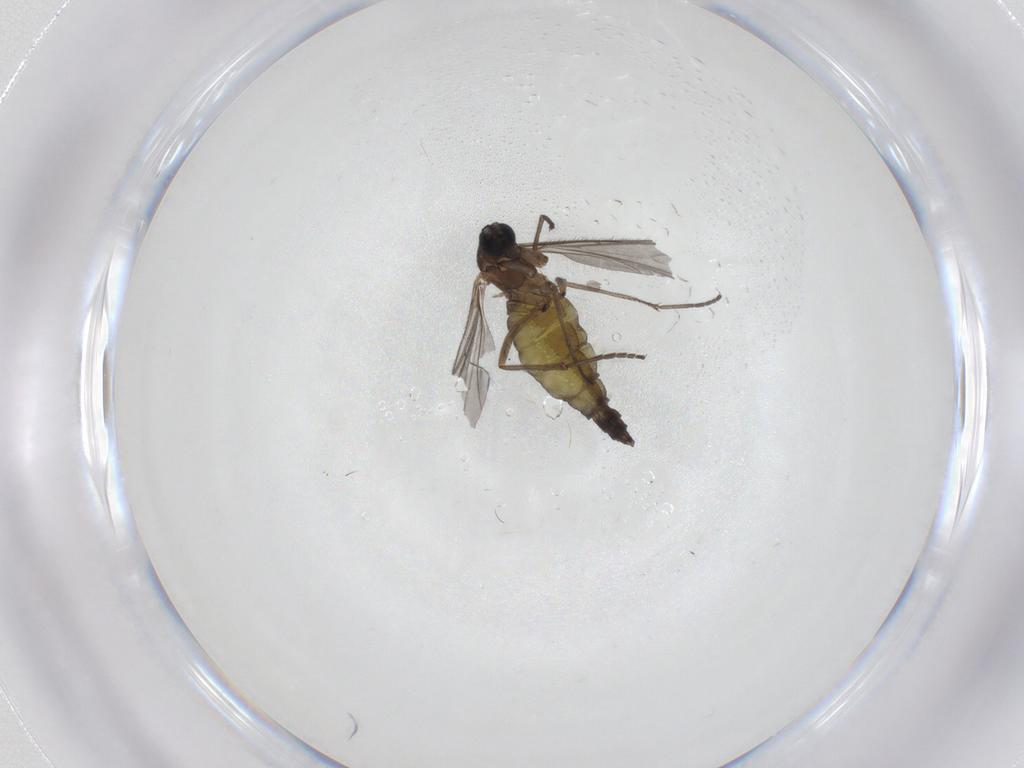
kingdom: Animalia
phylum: Arthropoda
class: Insecta
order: Diptera
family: Sciaridae
